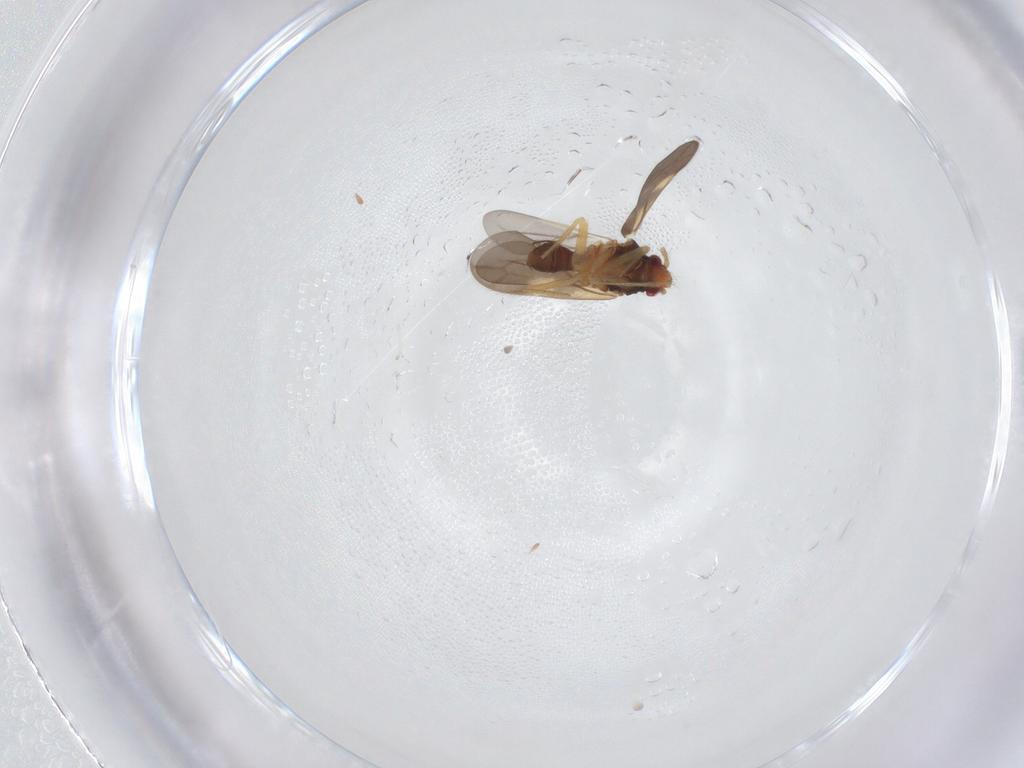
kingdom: Animalia
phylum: Arthropoda
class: Insecta
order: Hemiptera
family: Ceratocombidae
